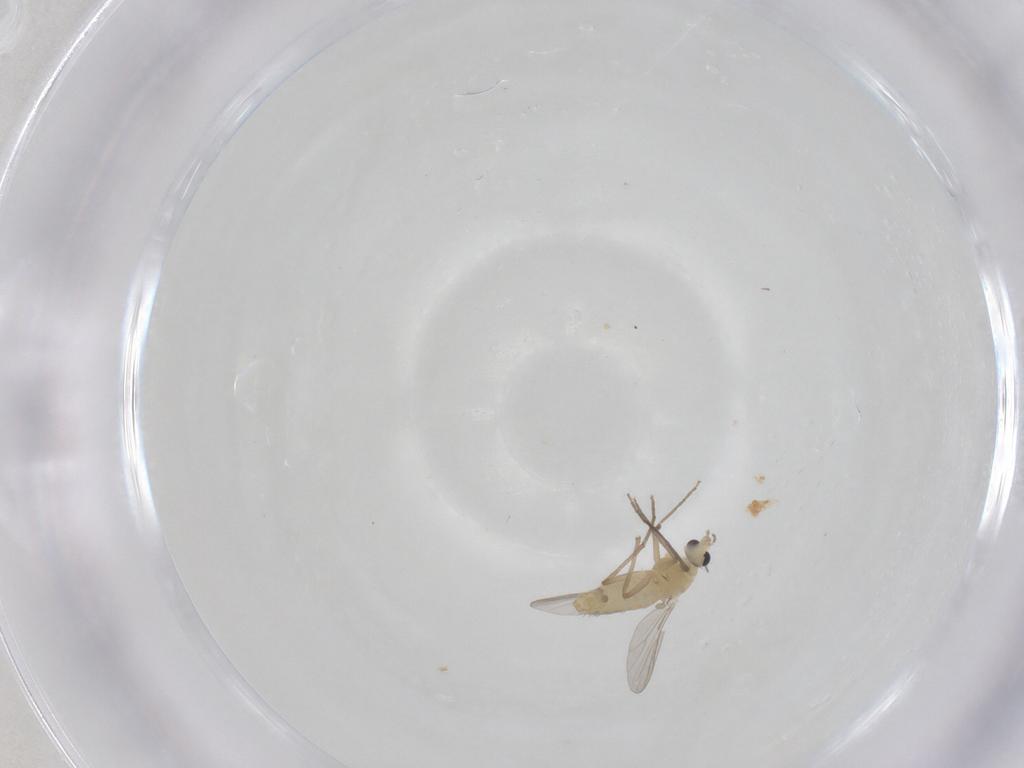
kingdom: Animalia
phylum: Arthropoda
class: Insecta
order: Diptera
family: Chironomidae
